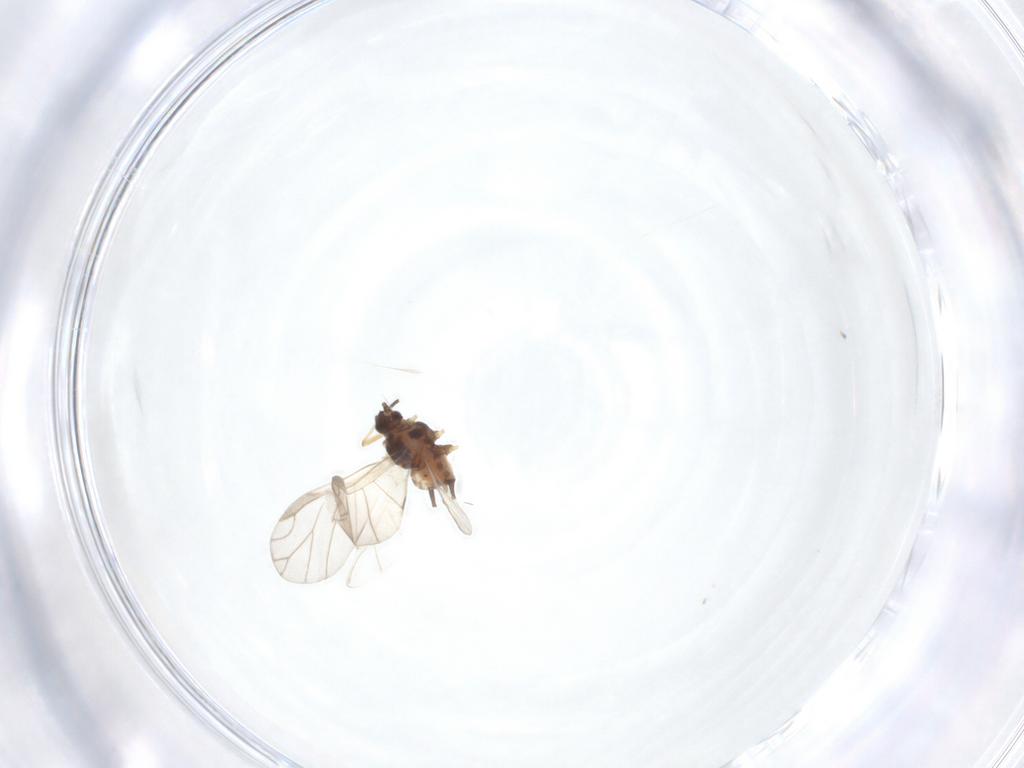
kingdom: Animalia
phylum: Arthropoda
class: Insecta
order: Hemiptera
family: Aphididae
